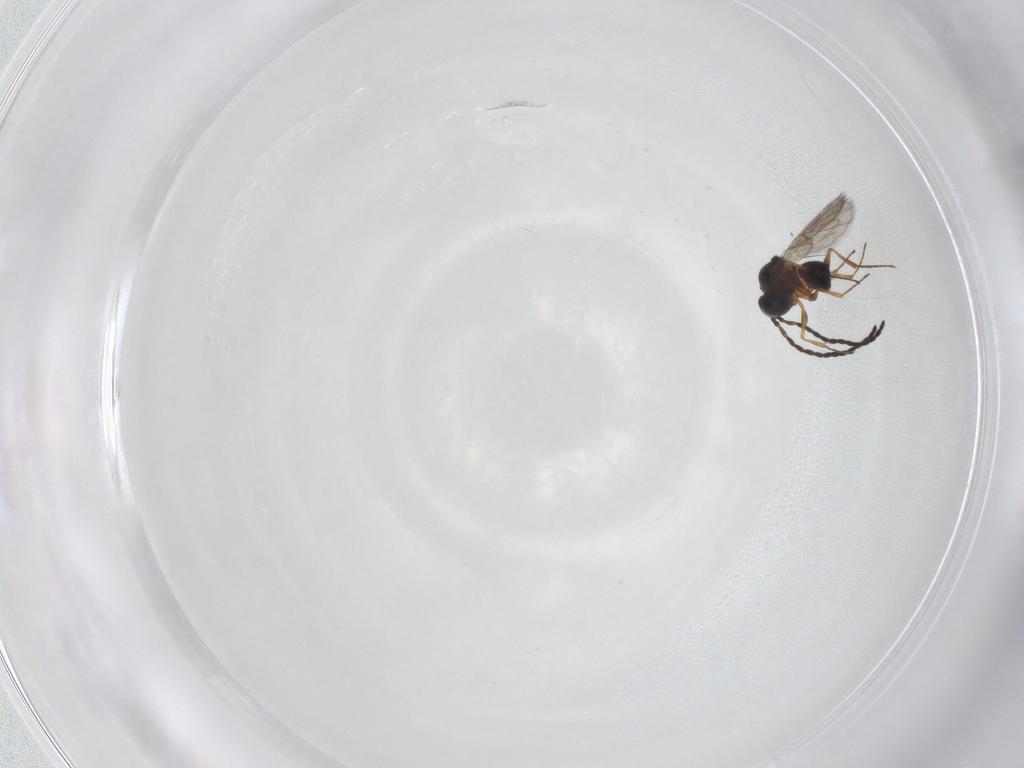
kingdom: Animalia
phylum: Arthropoda
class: Insecta
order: Hymenoptera
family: Figitidae
